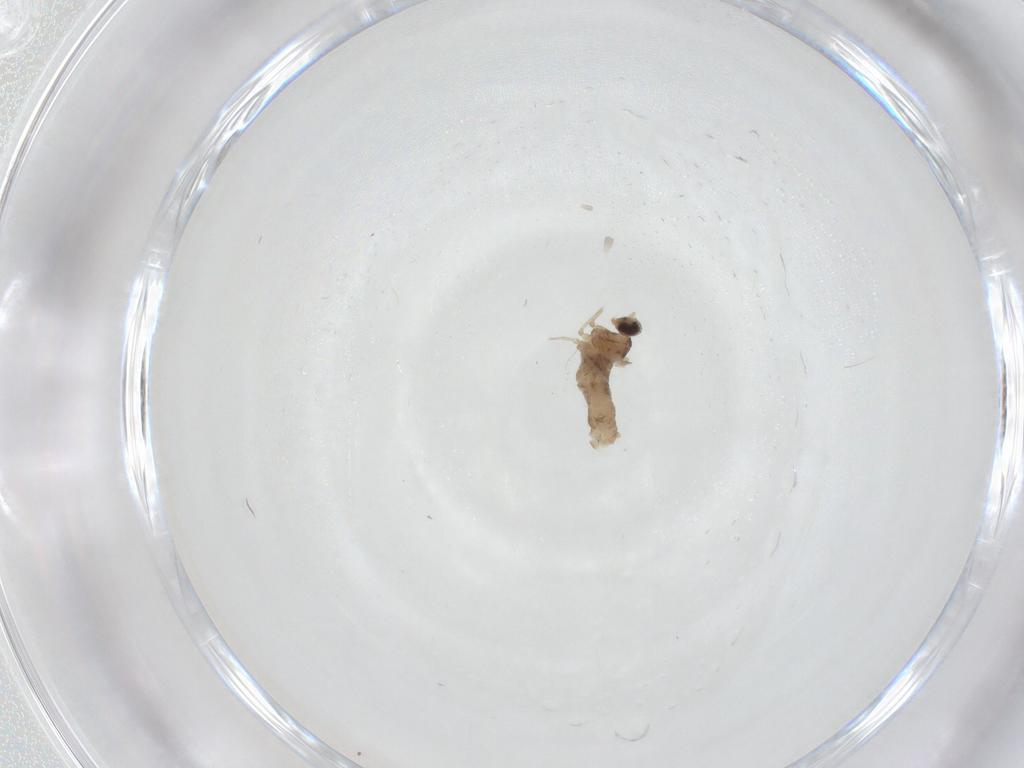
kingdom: Animalia
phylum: Arthropoda
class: Insecta
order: Diptera
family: Cecidomyiidae
